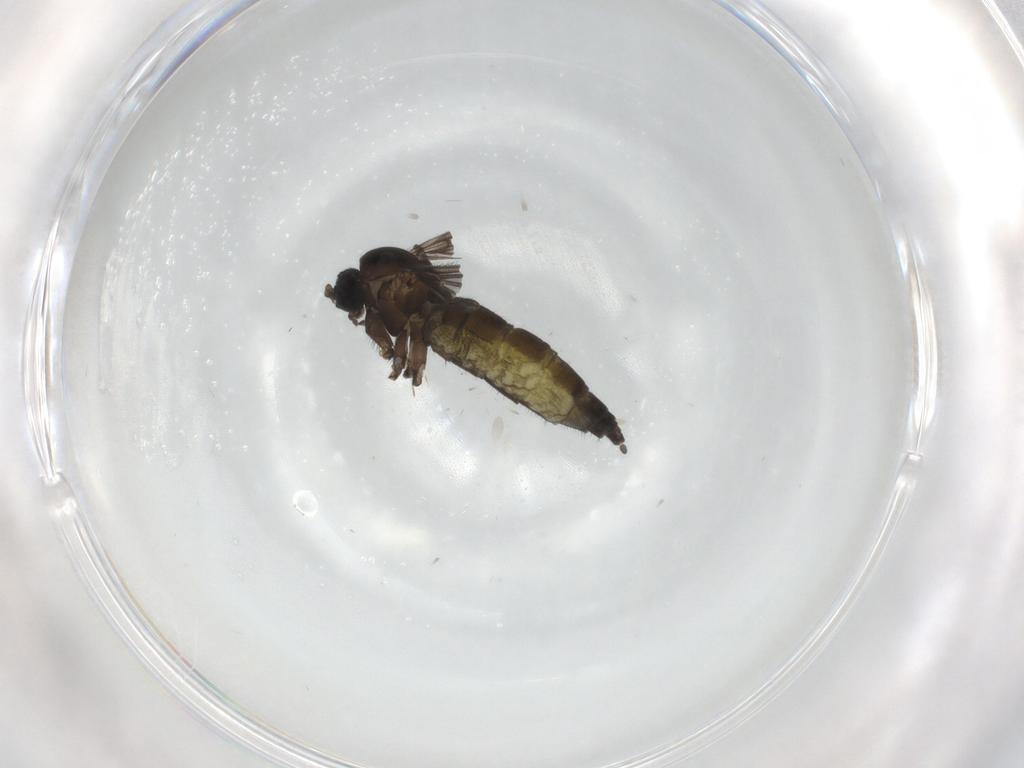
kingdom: Animalia
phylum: Arthropoda
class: Insecta
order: Diptera
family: Sciaridae
